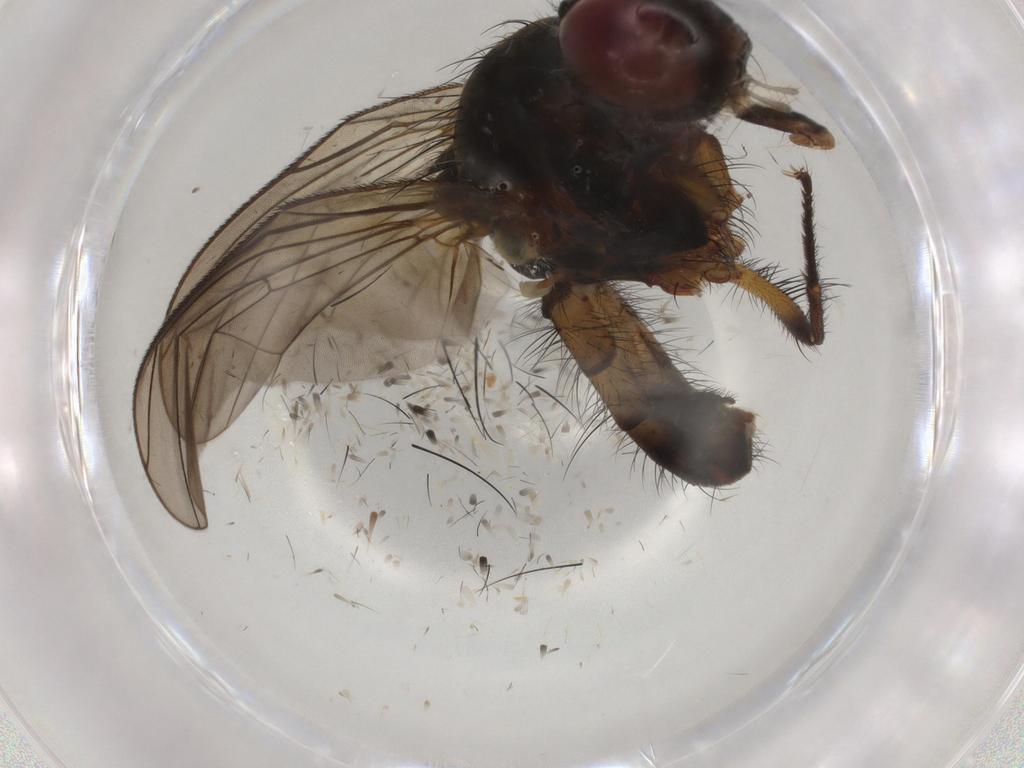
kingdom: Animalia
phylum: Arthropoda
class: Insecta
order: Diptera
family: Anthomyiidae
